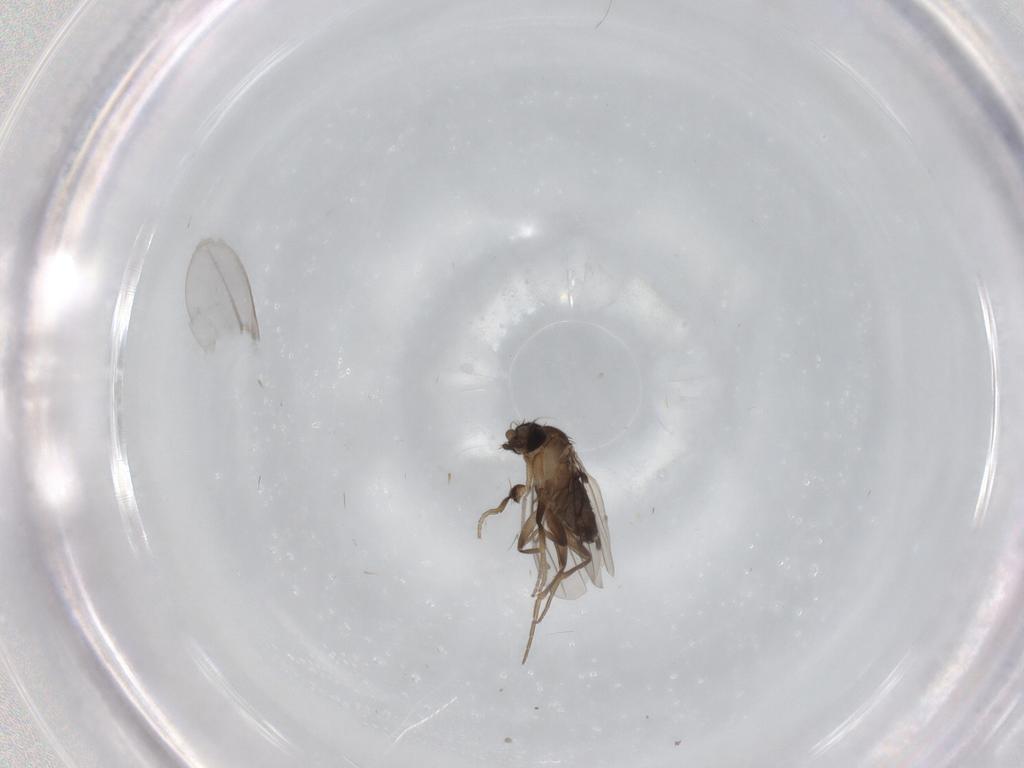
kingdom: Animalia
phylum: Arthropoda
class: Insecta
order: Diptera
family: Phoridae
